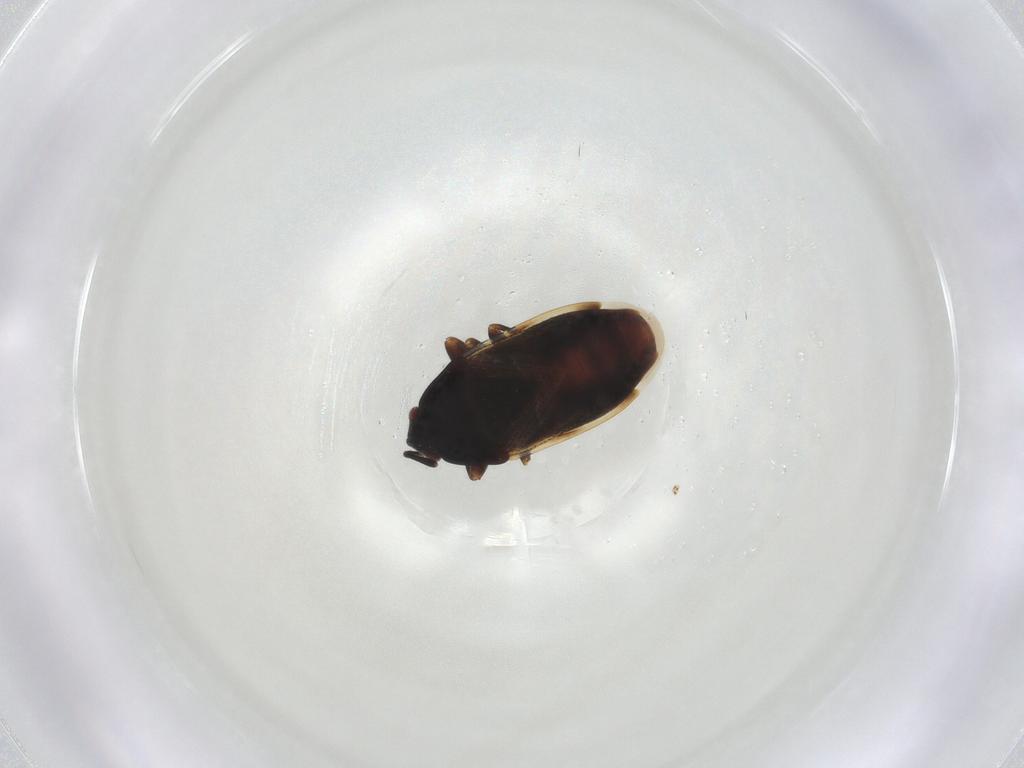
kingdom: Animalia
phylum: Arthropoda
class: Insecta
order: Hemiptera
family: Rhyparochromidae
